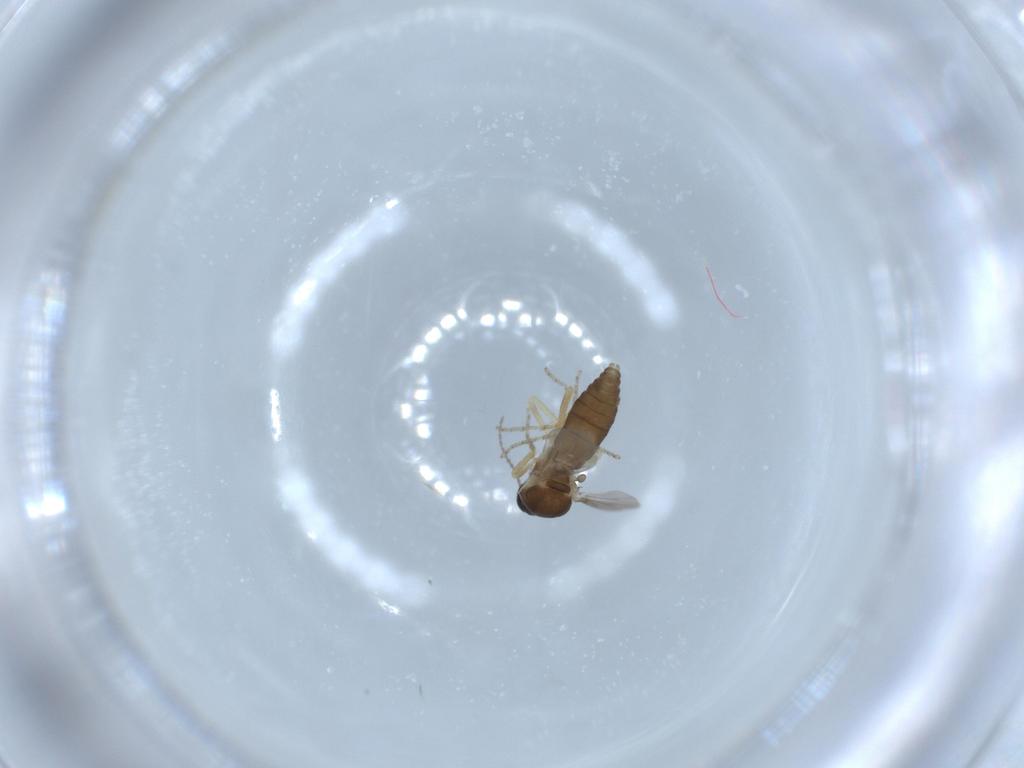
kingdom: Animalia
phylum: Arthropoda
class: Insecta
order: Diptera
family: Ceratopogonidae
